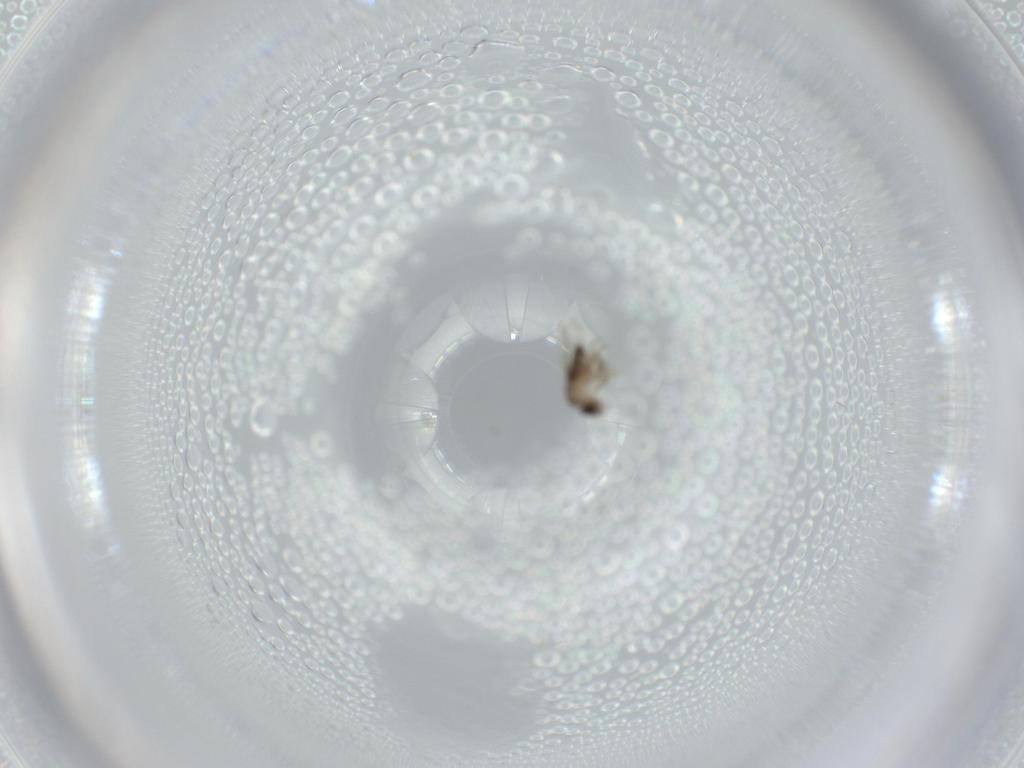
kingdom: Animalia
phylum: Arthropoda
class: Insecta
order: Diptera
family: Phoridae
